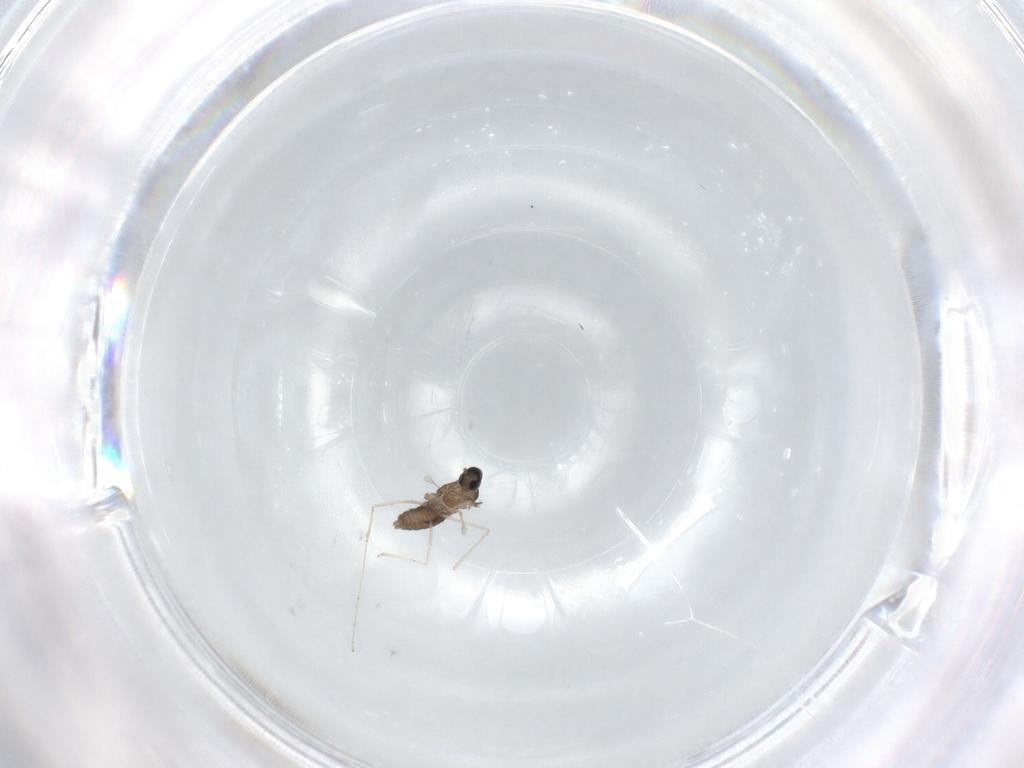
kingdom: Animalia
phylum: Arthropoda
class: Insecta
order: Diptera
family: Cecidomyiidae
